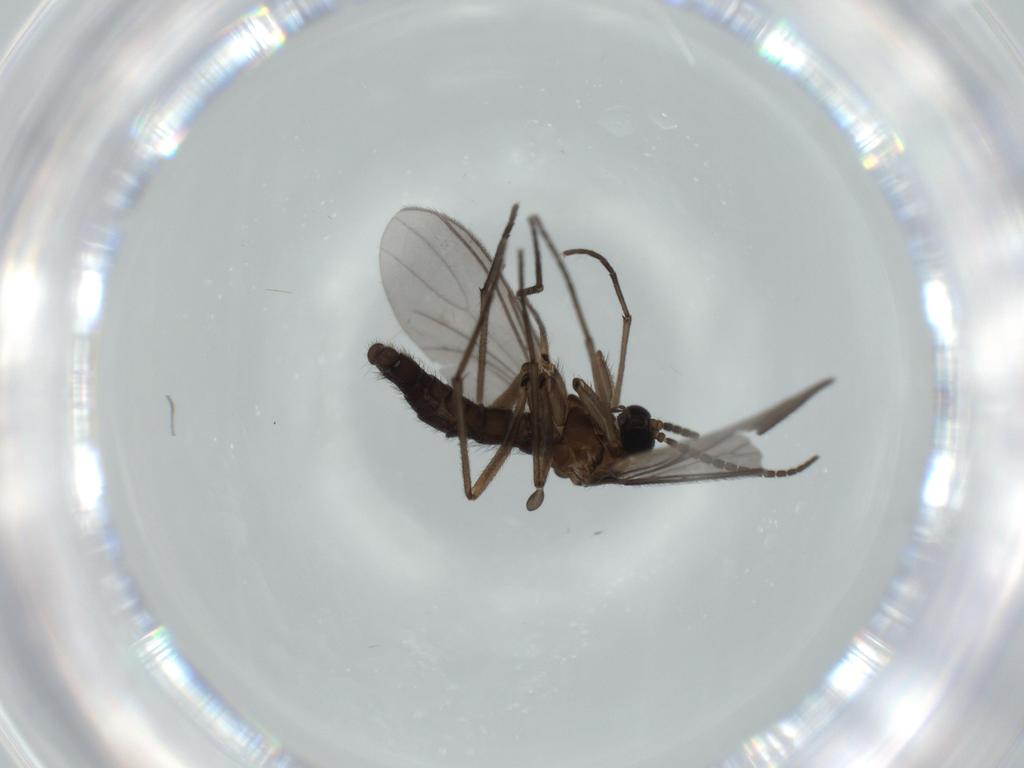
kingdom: Animalia
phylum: Arthropoda
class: Insecta
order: Diptera
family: Sciaridae
